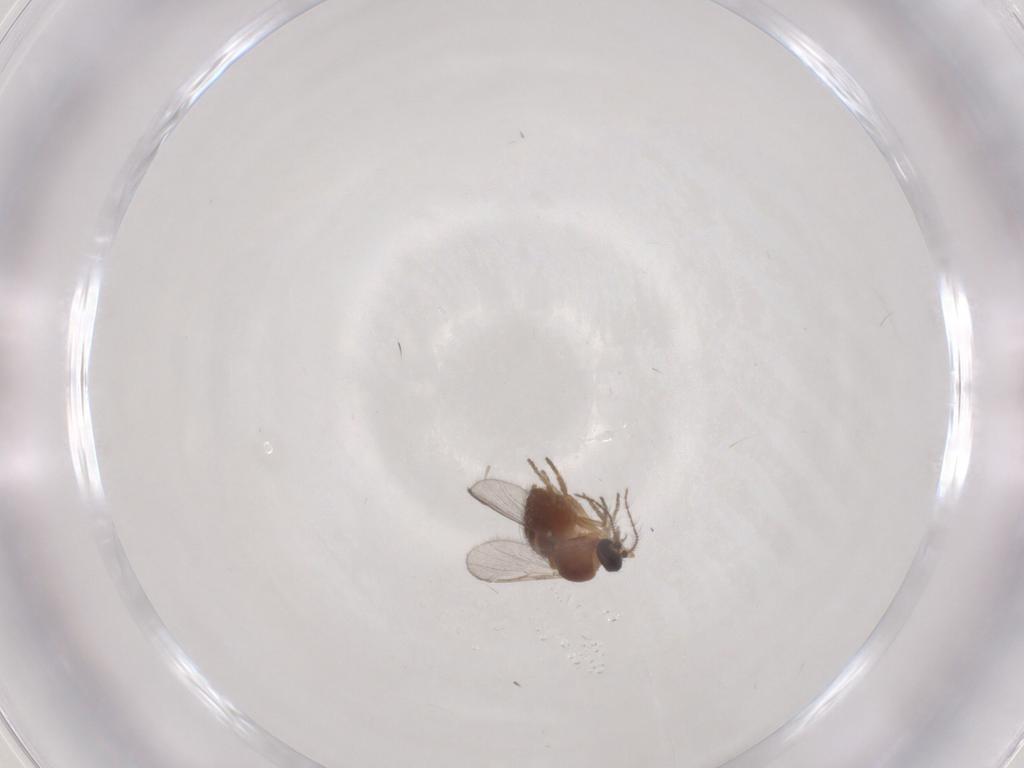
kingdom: Animalia
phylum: Arthropoda
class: Insecta
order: Diptera
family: Ceratopogonidae
